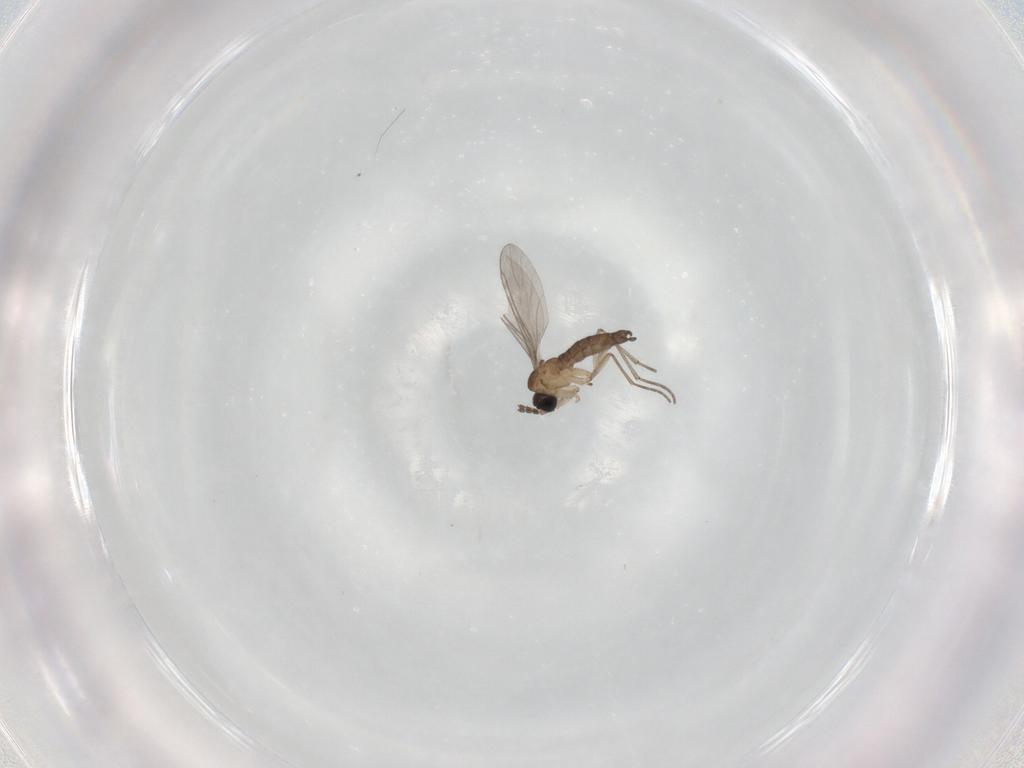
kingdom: Animalia
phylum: Arthropoda
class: Insecta
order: Diptera
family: Sciaridae
